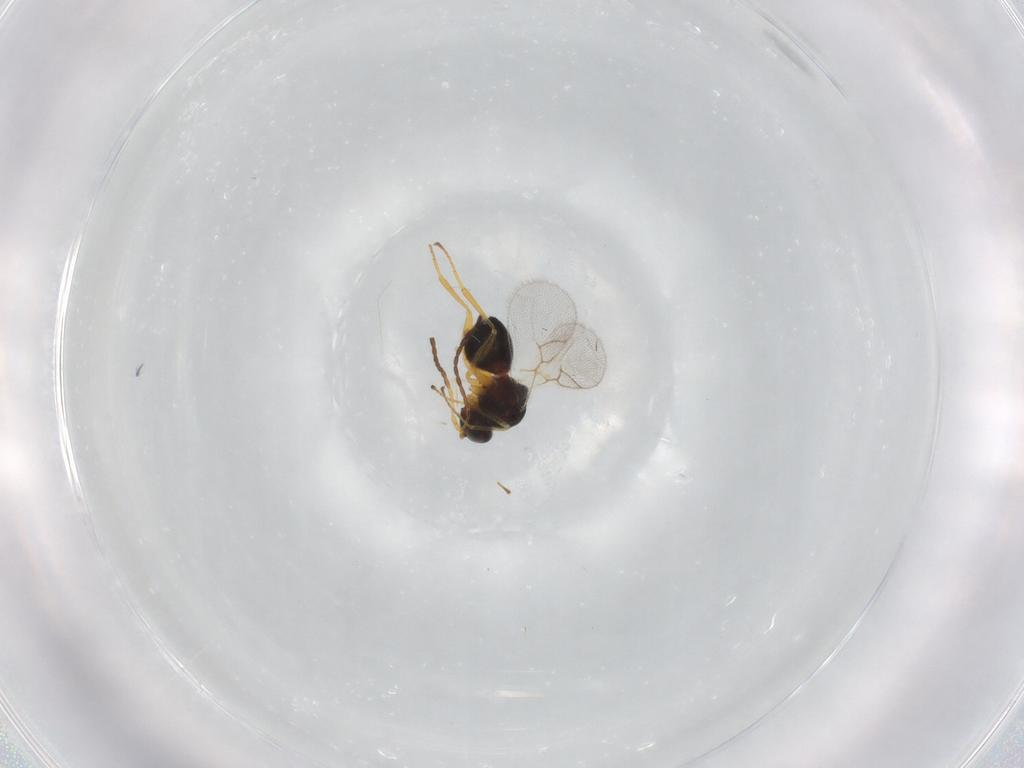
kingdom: Animalia
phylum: Arthropoda
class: Insecta
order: Hymenoptera
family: Figitidae
